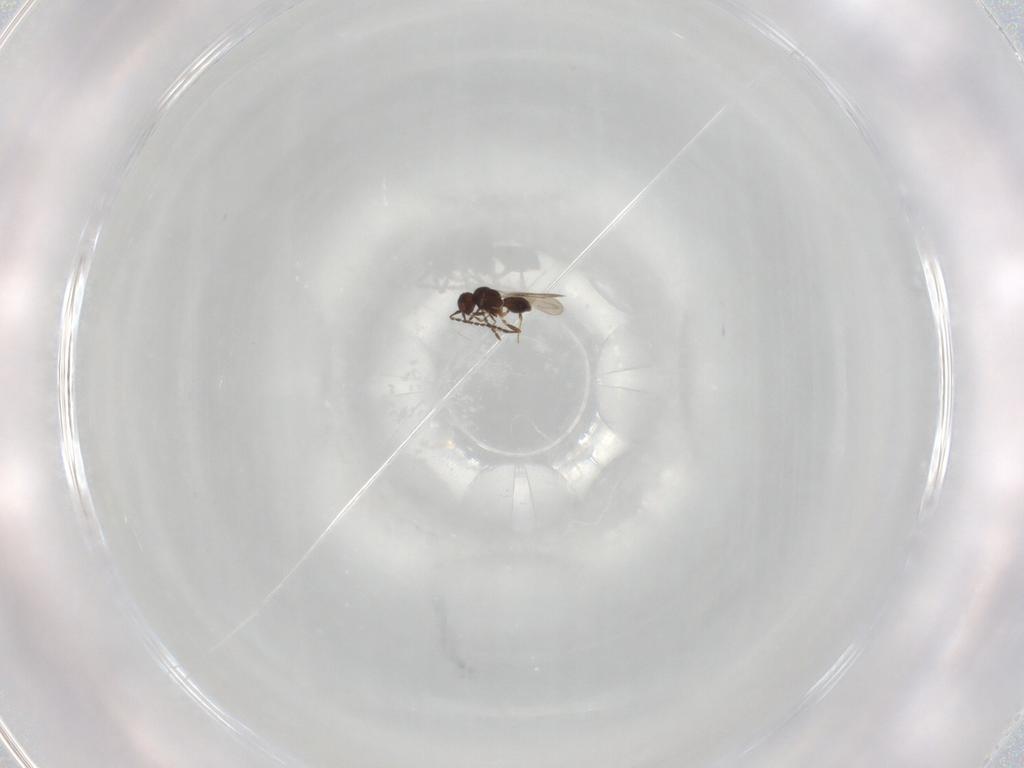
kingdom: Animalia
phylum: Arthropoda
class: Insecta
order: Hymenoptera
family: Ceraphronidae
